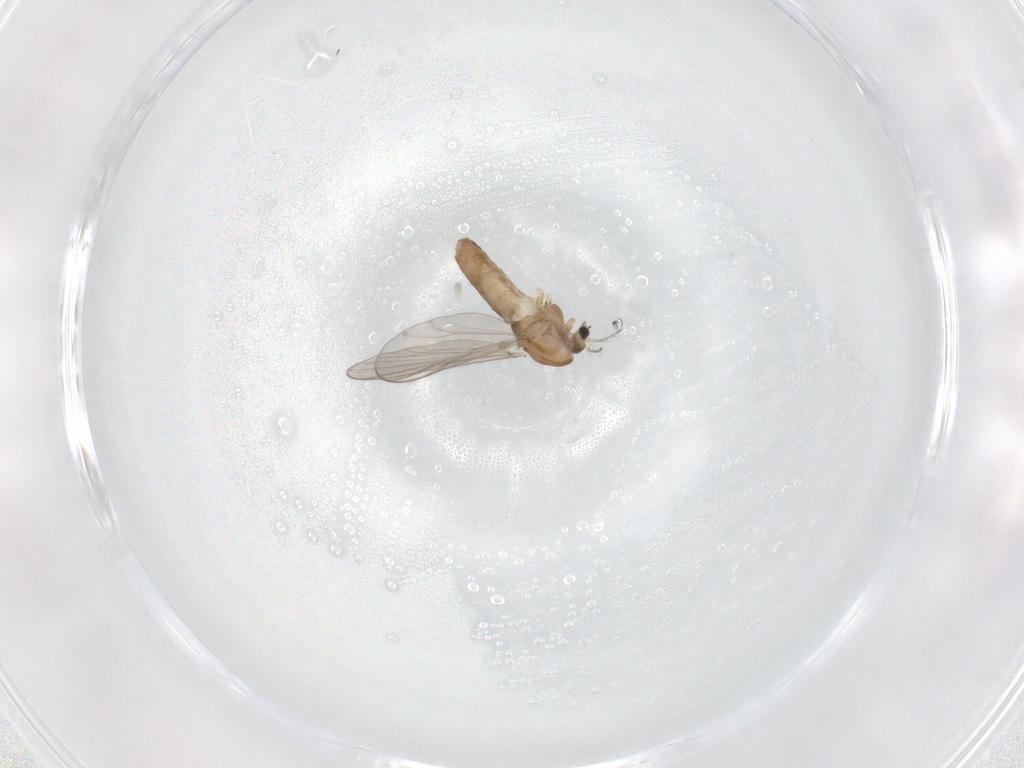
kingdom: Animalia
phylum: Arthropoda
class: Insecta
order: Diptera
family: Chironomidae
